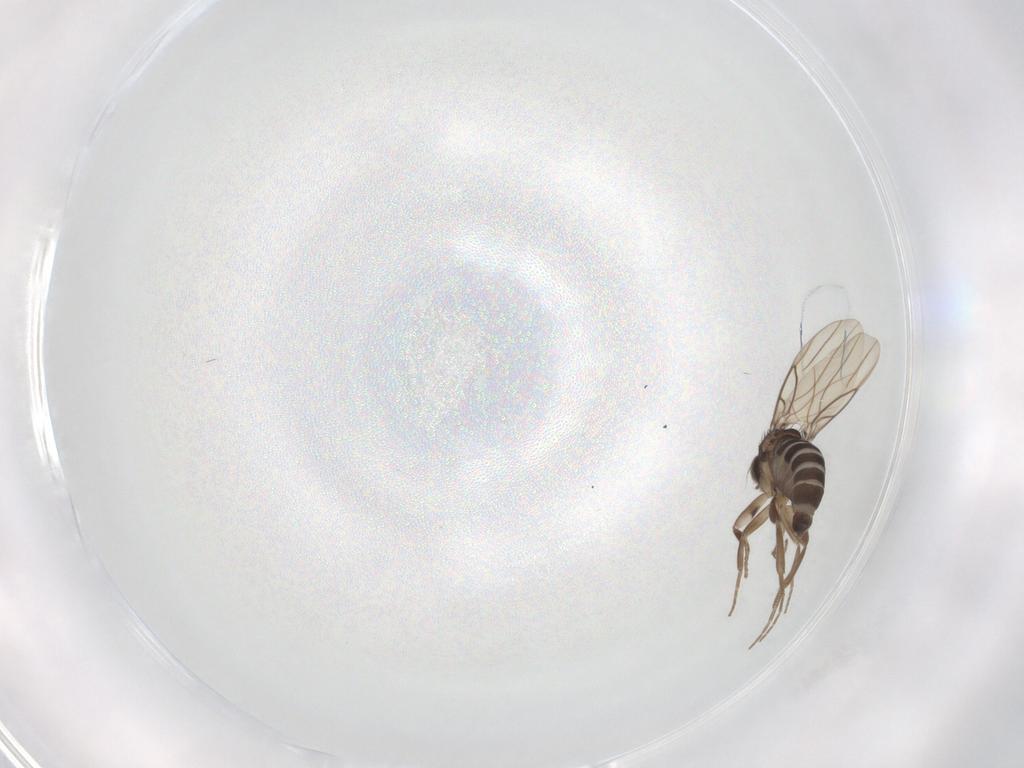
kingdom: Animalia
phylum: Arthropoda
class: Insecta
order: Diptera
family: Phoridae
